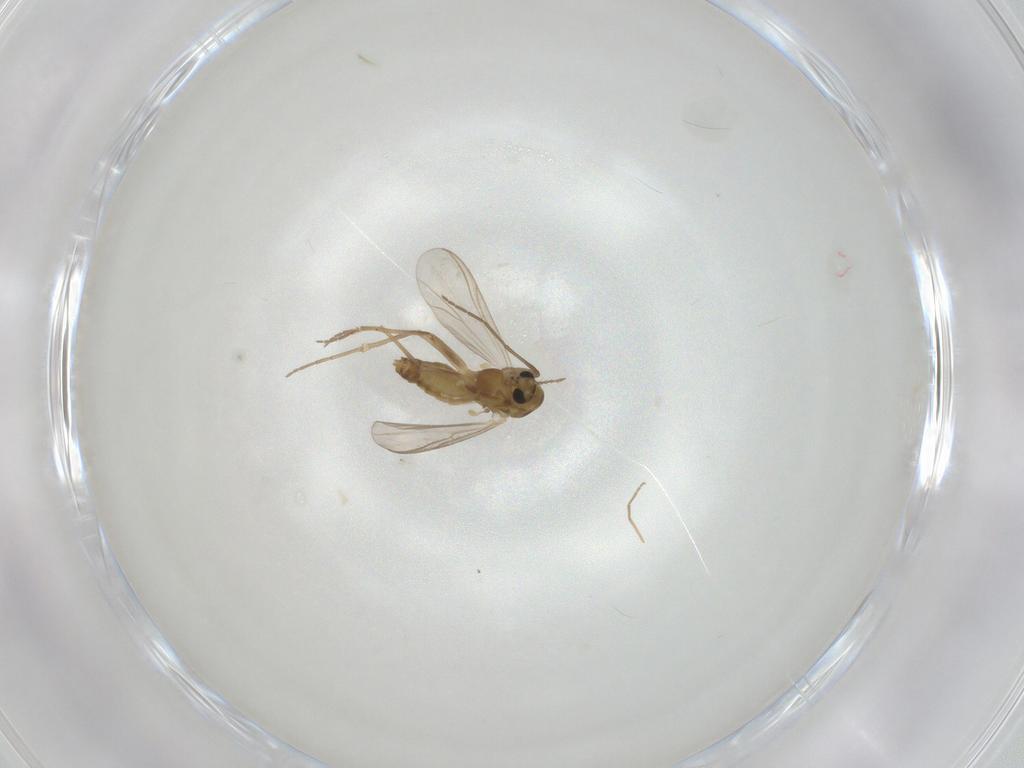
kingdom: Animalia
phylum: Arthropoda
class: Insecta
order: Diptera
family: Chironomidae
